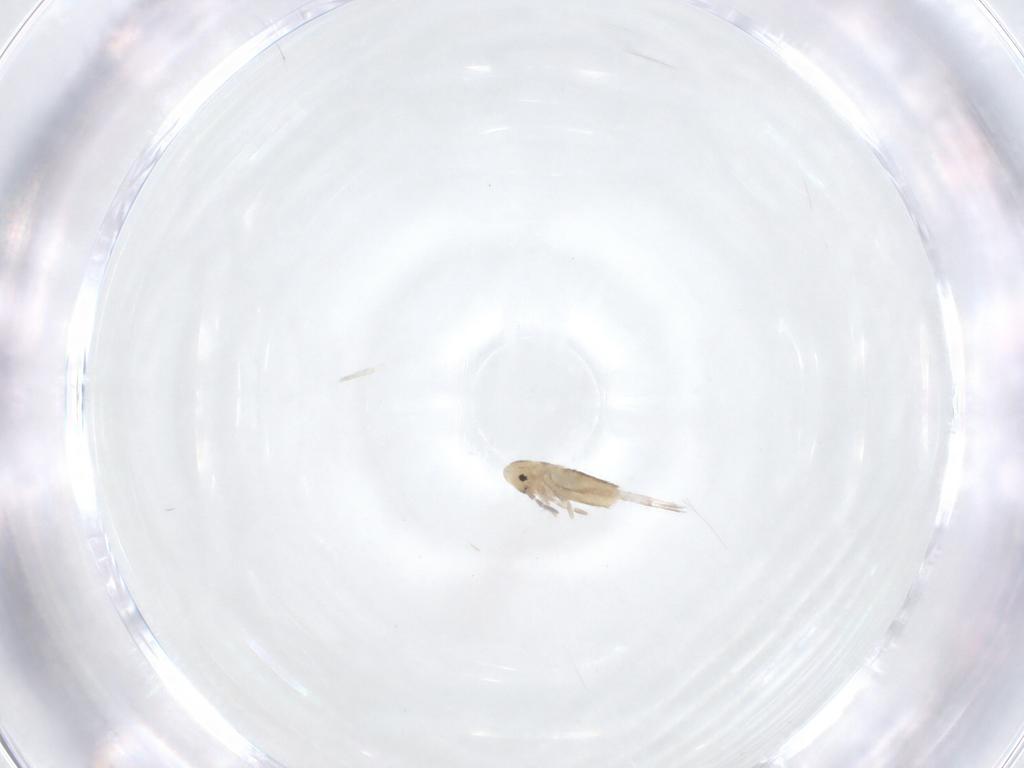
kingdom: Animalia
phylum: Arthropoda
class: Collembola
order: Entomobryomorpha
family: Entomobryidae
